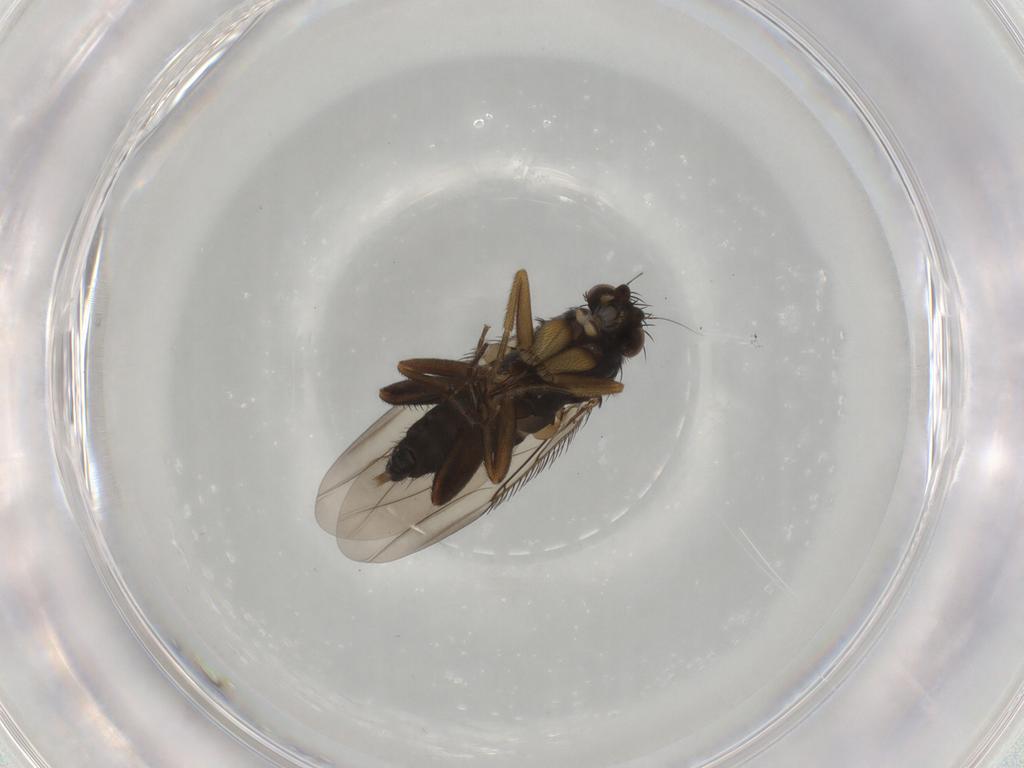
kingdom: Animalia
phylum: Arthropoda
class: Insecta
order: Diptera
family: Phoridae
